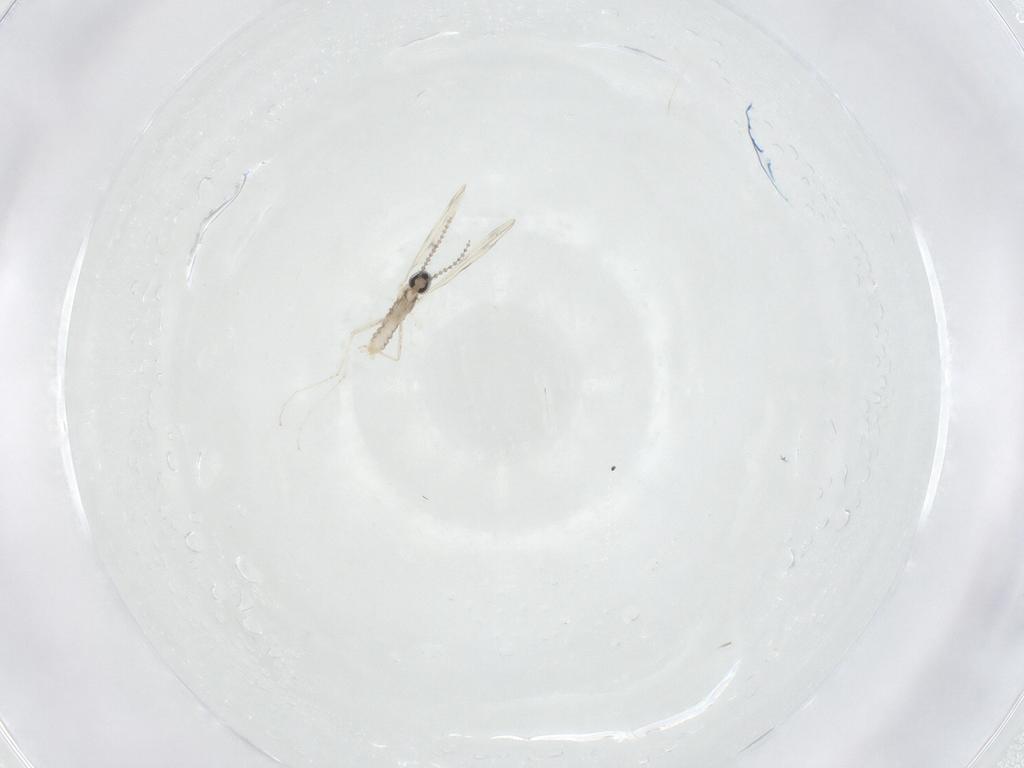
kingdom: Animalia
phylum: Arthropoda
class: Insecta
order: Diptera
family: Cecidomyiidae
